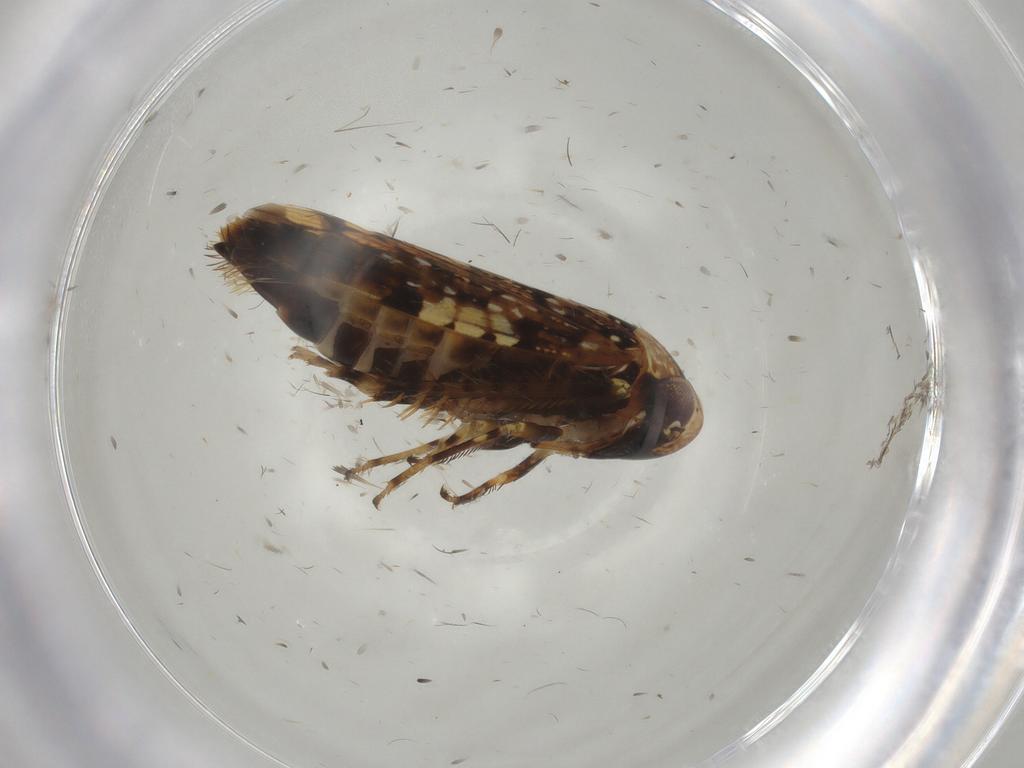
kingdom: Animalia
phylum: Arthropoda
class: Insecta
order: Hemiptera
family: Cicadellidae
